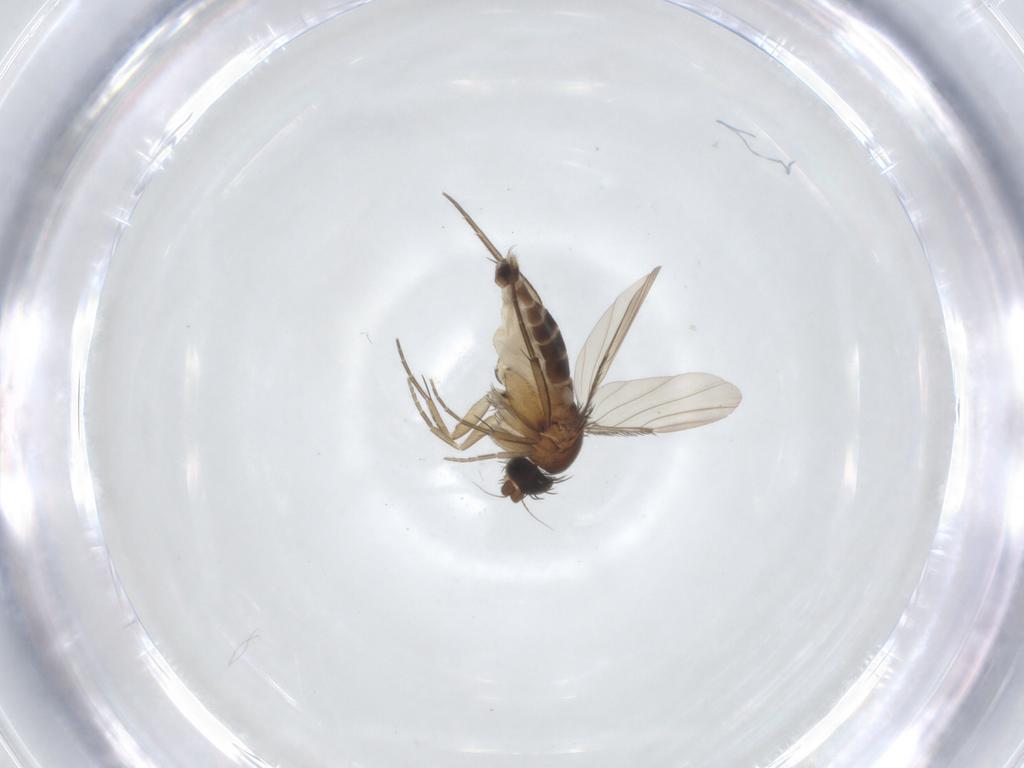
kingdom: Animalia
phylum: Arthropoda
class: Insecta
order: Diptera
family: Phoridae
